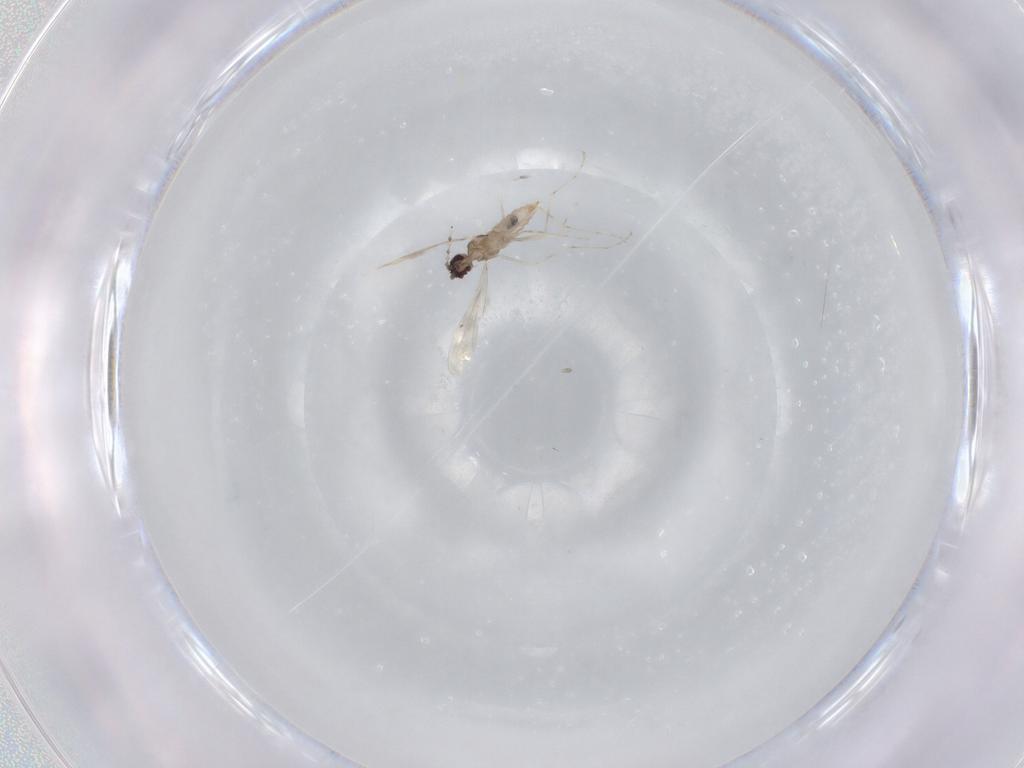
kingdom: Animalia
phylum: Arthropoda
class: Insecta
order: Diptera
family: Cecidomyiidae
